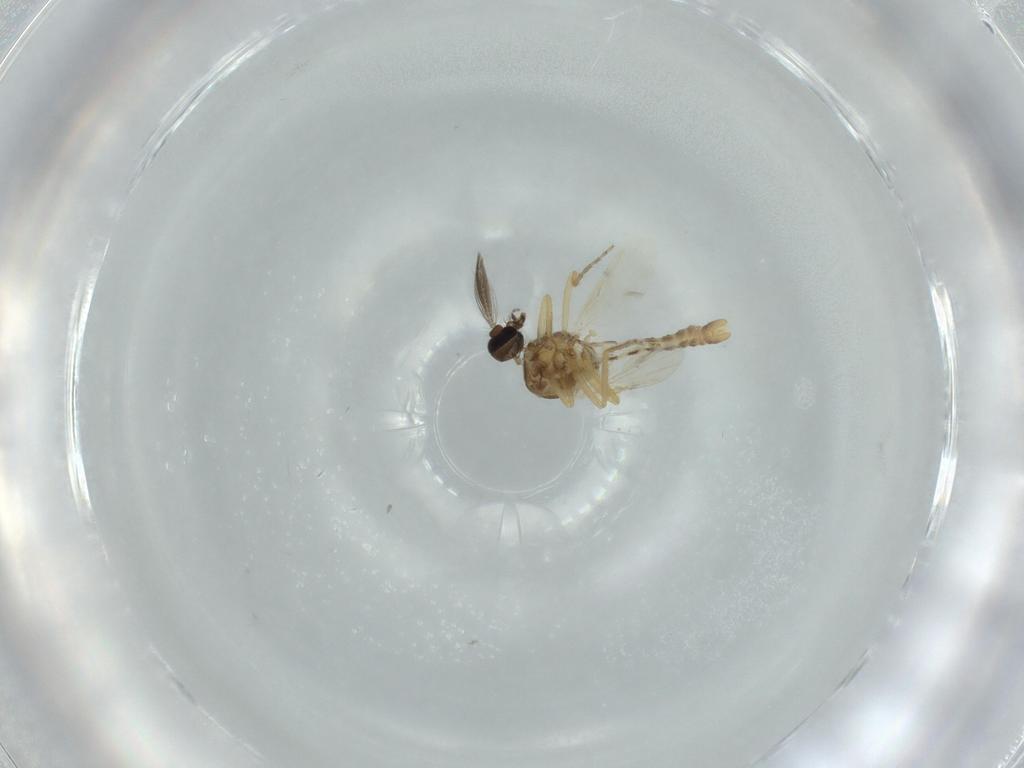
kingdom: Animalia
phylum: Arthropoda
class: Insecta
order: Diptera
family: Ceratopogonidae
